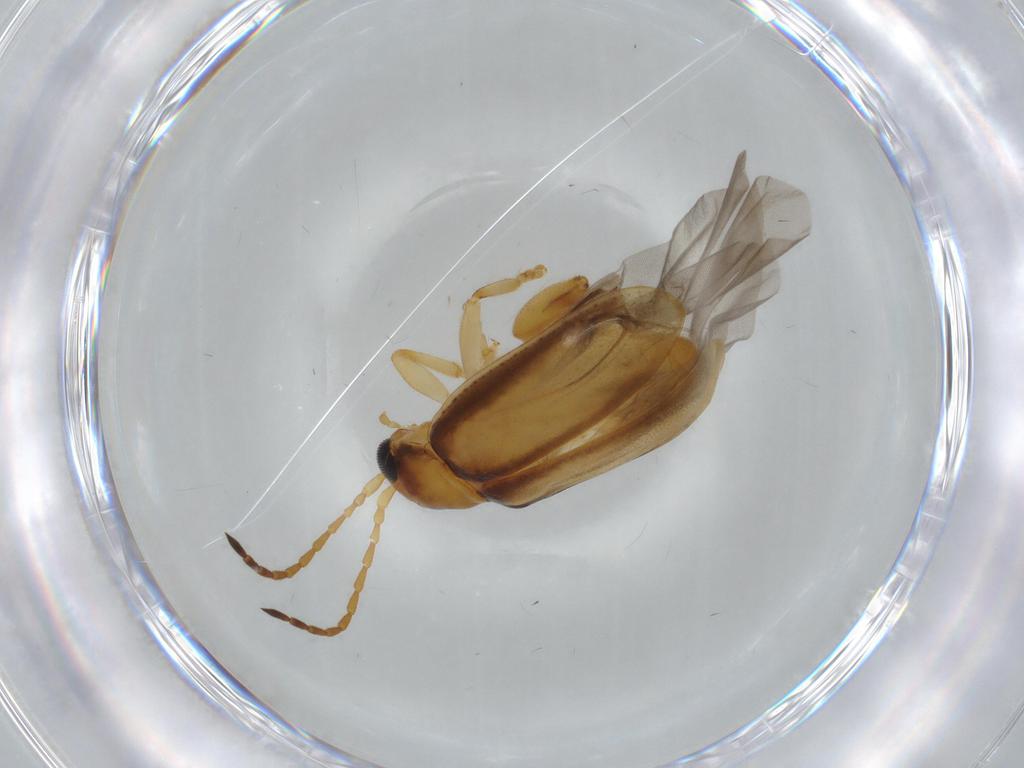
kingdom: Animalia
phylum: Arthropoda
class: Insecta
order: Coleoptera
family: Chrysomelidae
